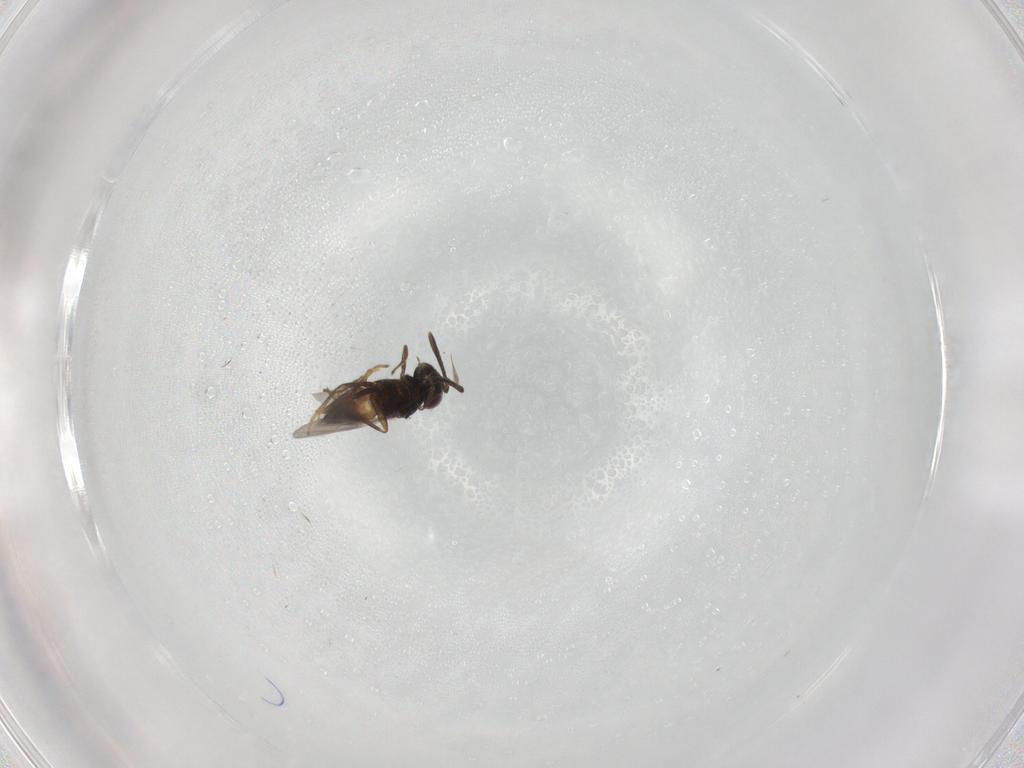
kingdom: Animalia
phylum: Arthropoda
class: Insecta
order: Hymenoptera
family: Encyrtidae
